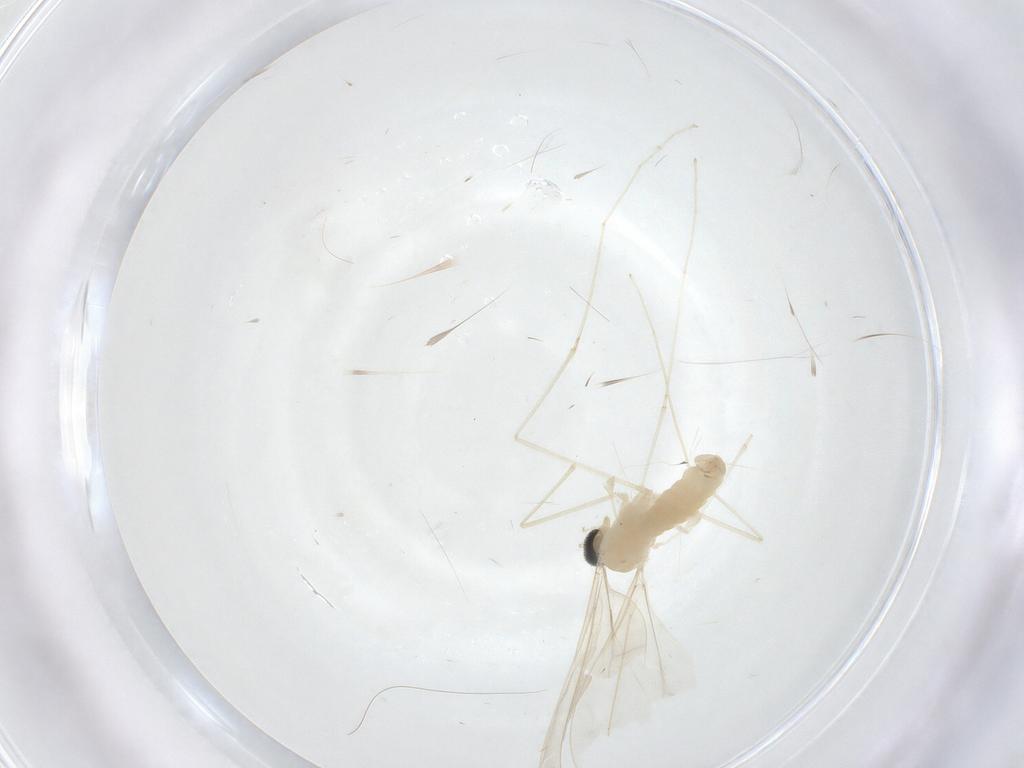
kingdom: Animalia
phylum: Arthropoda
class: Insecta
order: Diptera
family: Cecidomyiidae
